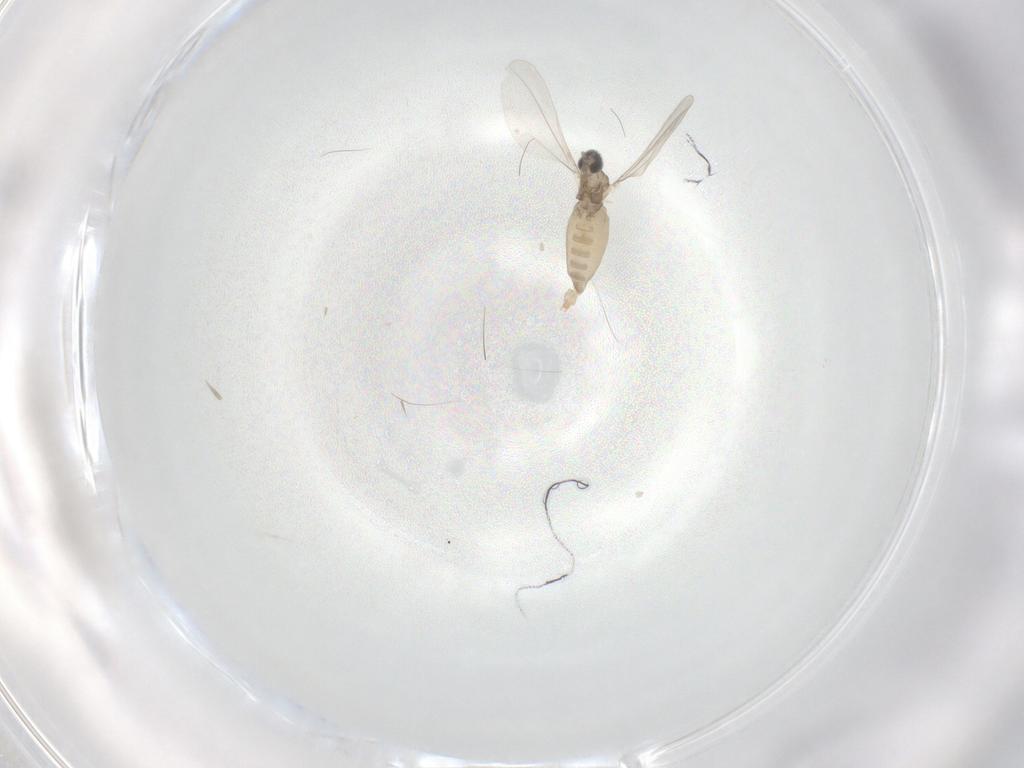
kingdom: Animalia
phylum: Arthropoda
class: Insecta
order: Diptera
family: Cecidomyiidae
